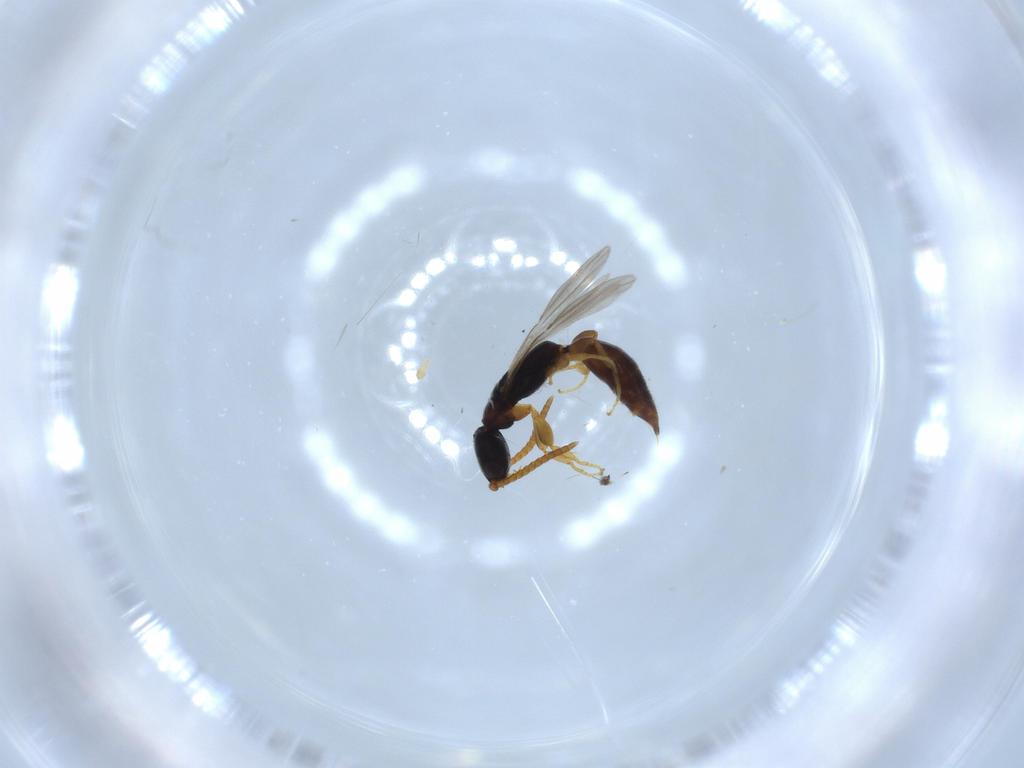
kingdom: Animalia
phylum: Arthropoda
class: Insecta
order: Hymenoptera
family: Bethylidae
